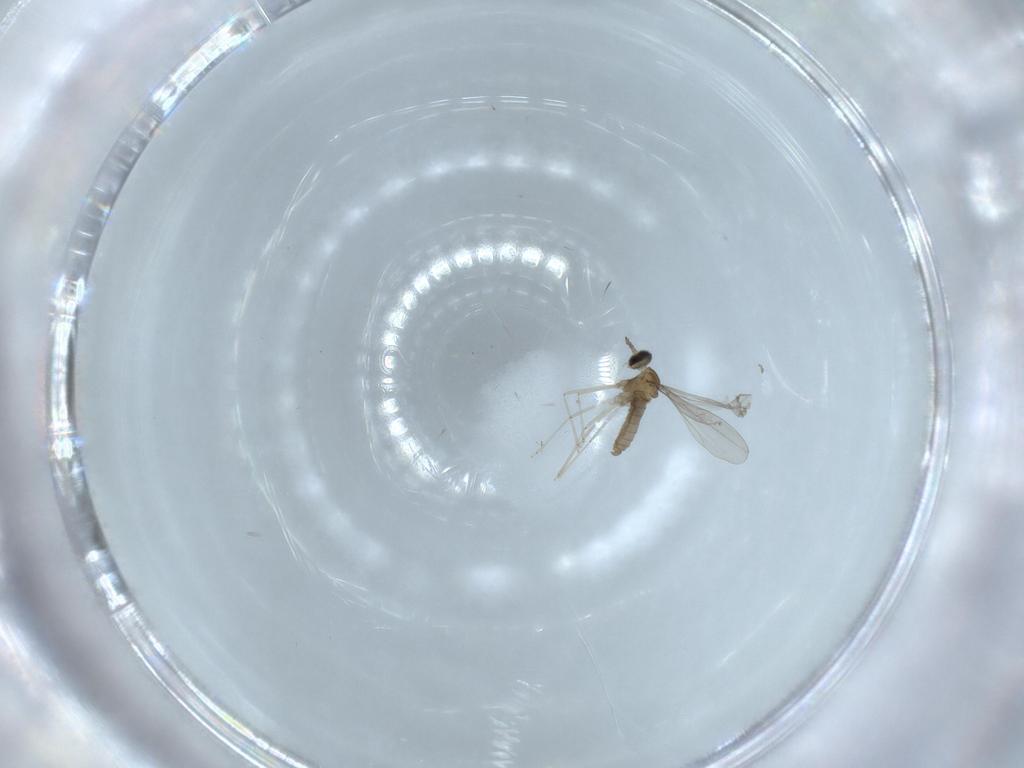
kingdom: Animalia
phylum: Arthropoda
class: Insecta
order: Diptera
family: Cecidomyiidae
